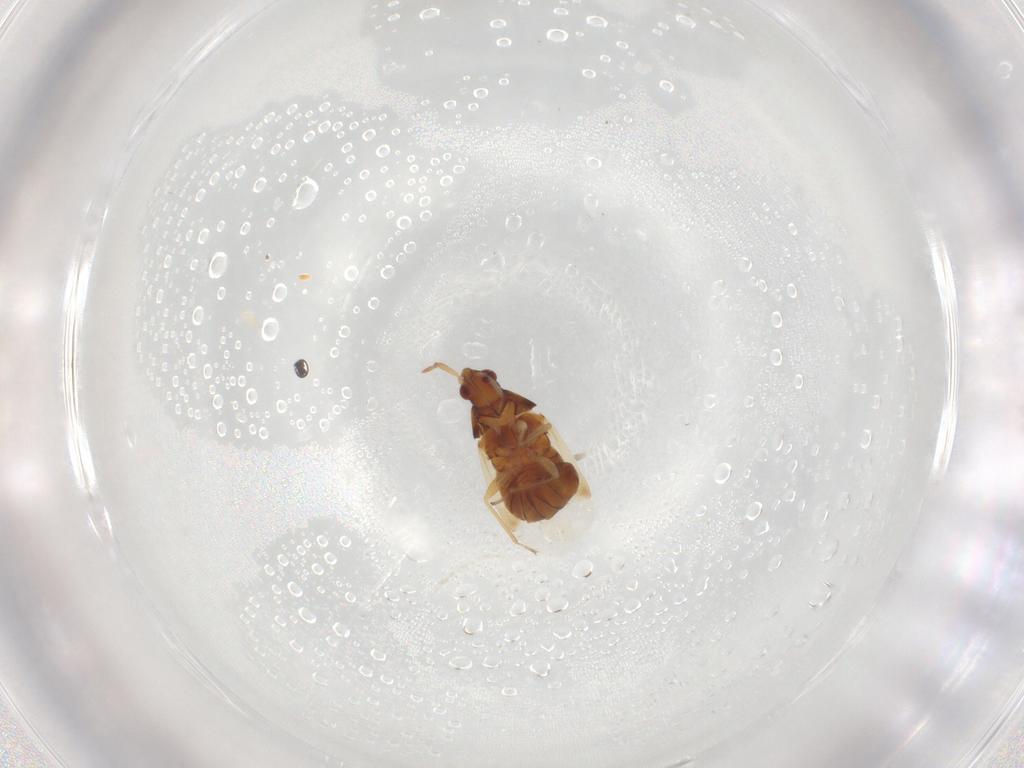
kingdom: Animalia
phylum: Arthropoda
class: Insecta
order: Hemiptera
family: Anthocoridae
